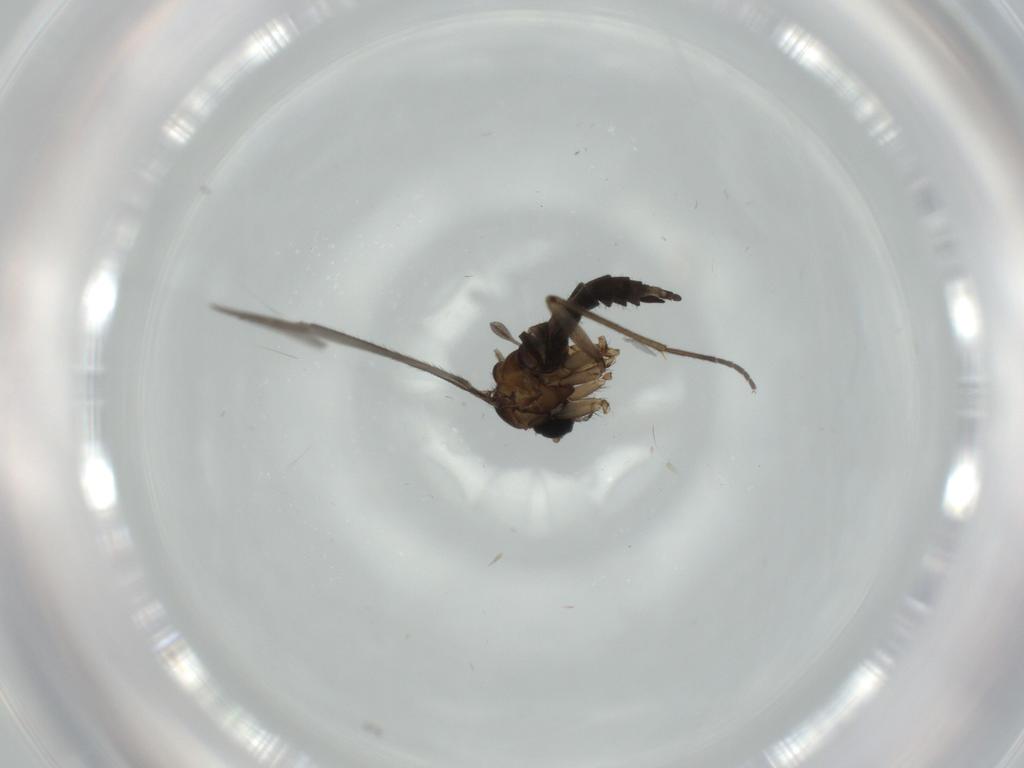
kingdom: Animalia
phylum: Arthropoda
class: Insecta
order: Diptera
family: Sciaridae
